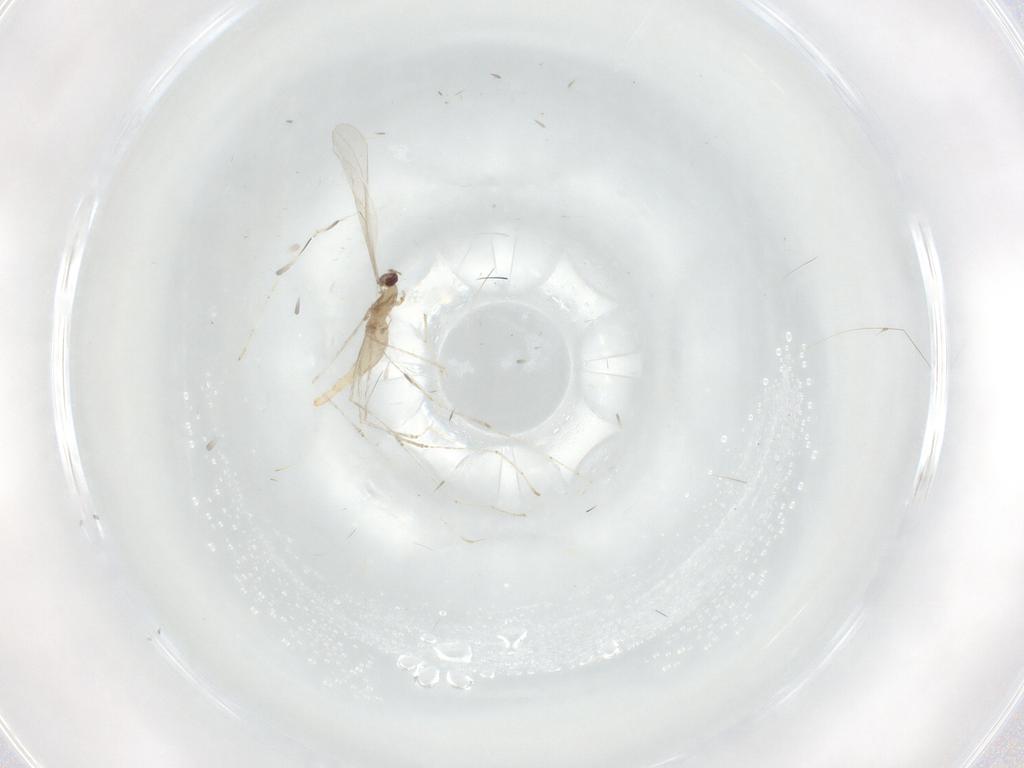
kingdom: Animalia
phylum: Arthropoda
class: Insecta
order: Diptera
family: Cecidomyiidae
